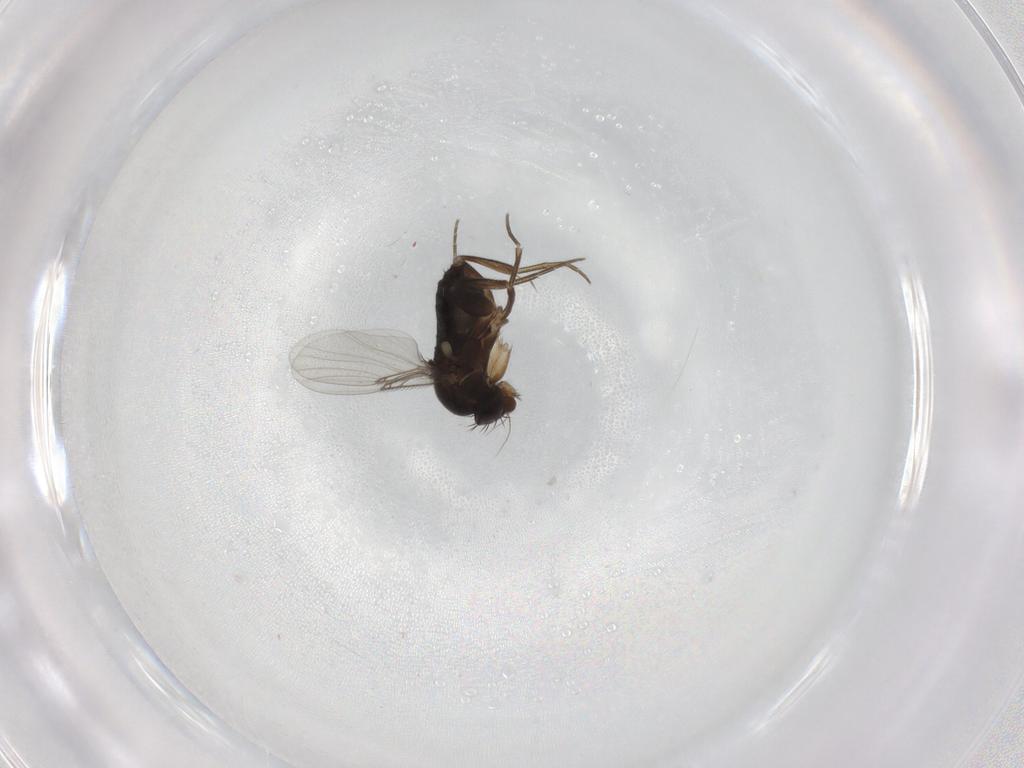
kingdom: Animalia
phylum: Arthropoda
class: Insecta
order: Diptera
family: Phoridae
